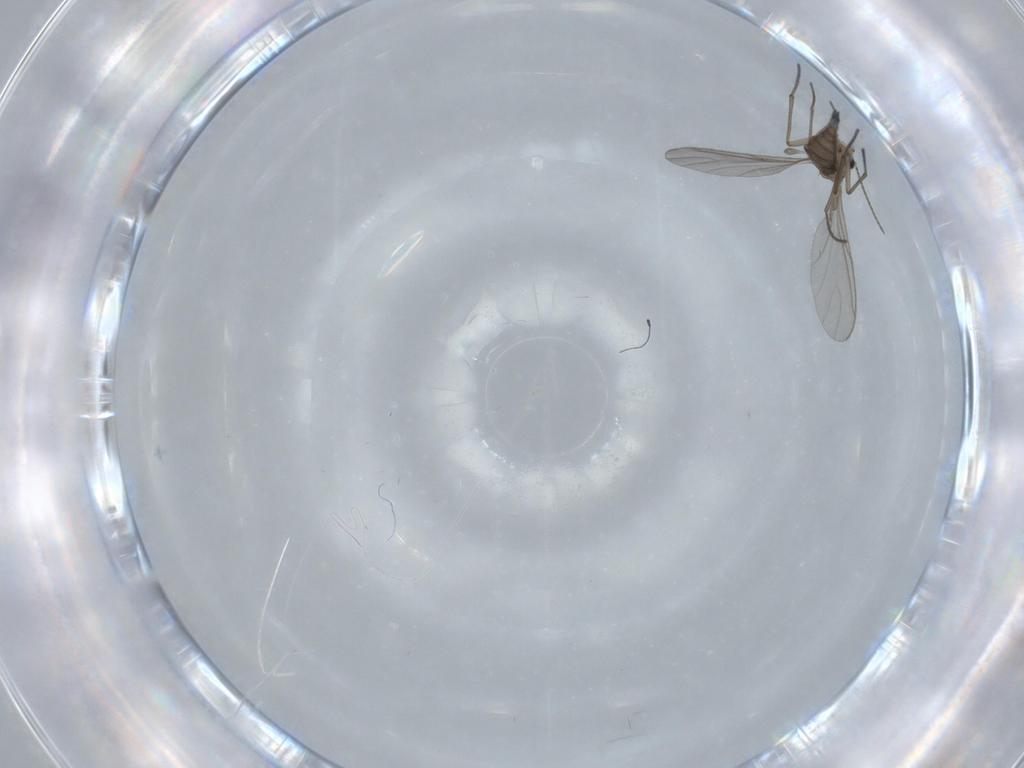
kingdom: Animalia
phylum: Arthropoda
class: Insecta
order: Diptera
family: Sciaridae
